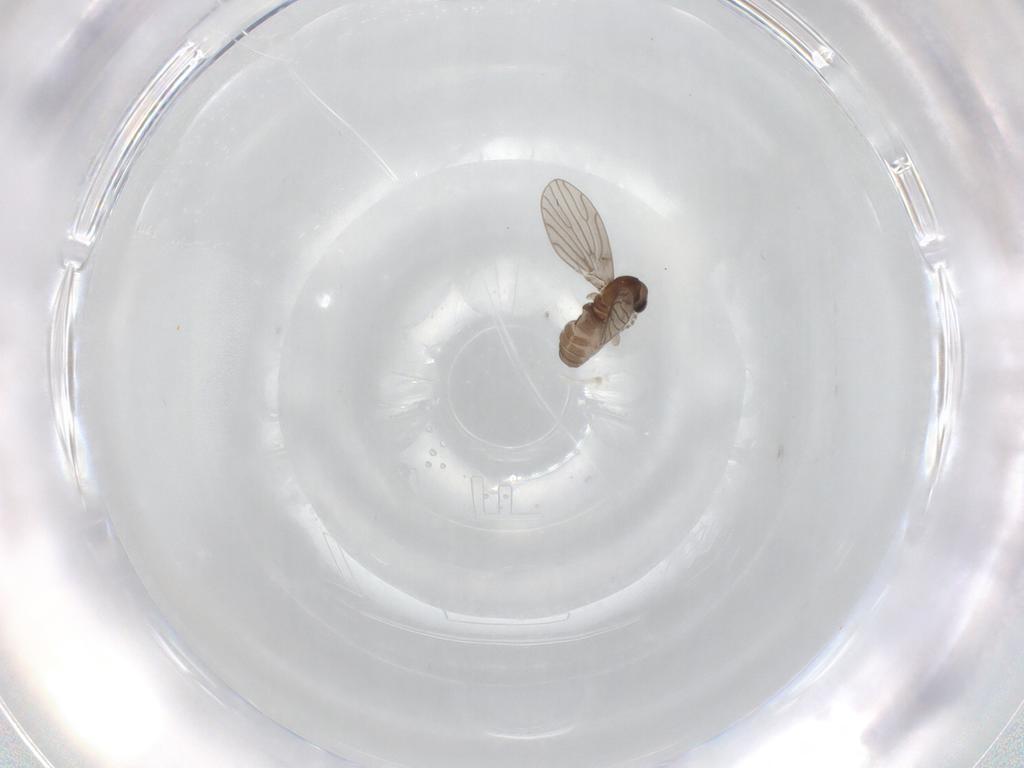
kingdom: Animalia
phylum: Arthropoda
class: Insecta
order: Diptera
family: Psychodidae
